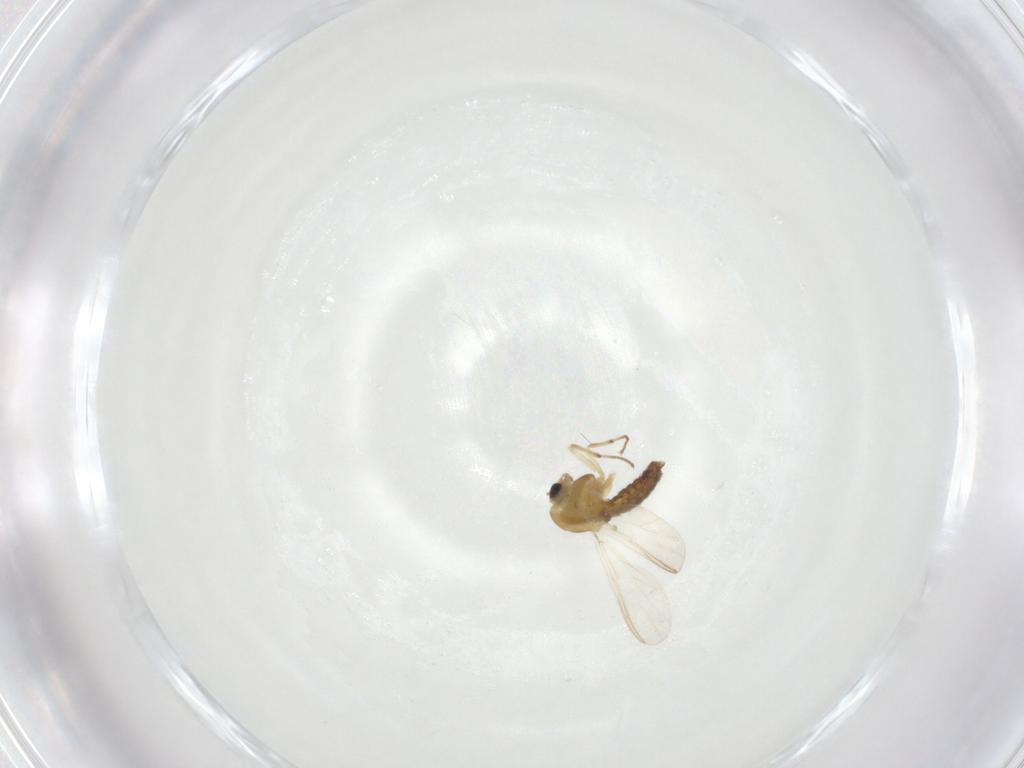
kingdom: Animalia
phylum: Arthropoda
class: Insecta
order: Diptera
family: Chironomidae
